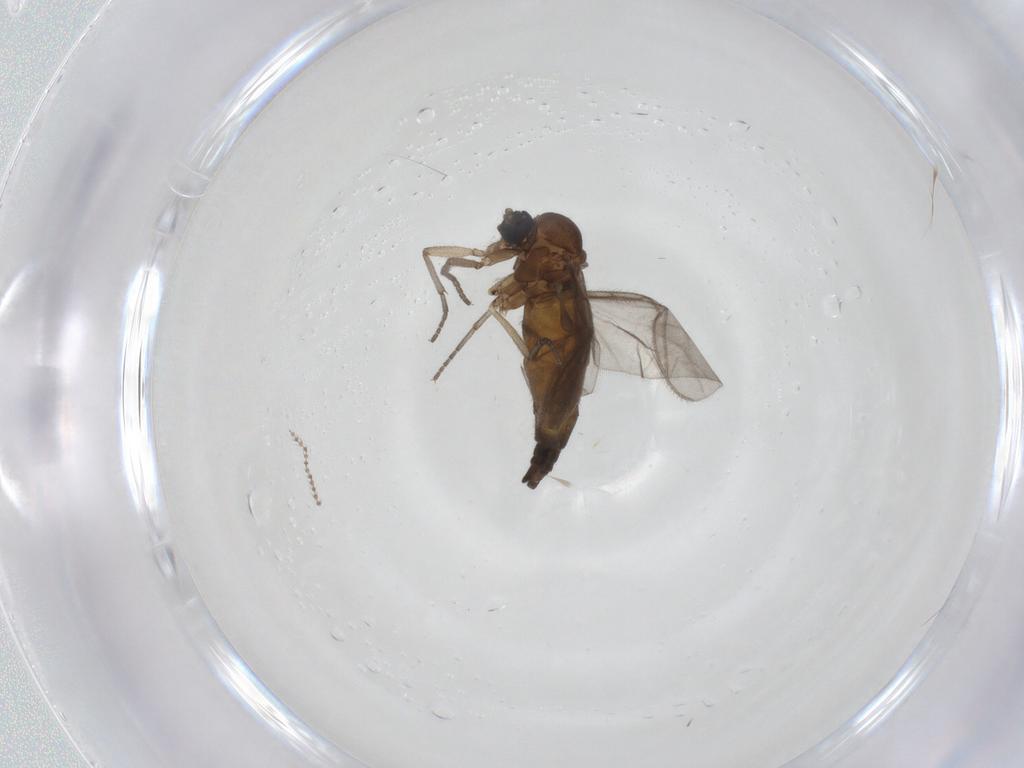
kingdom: Animalia
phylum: Arthropoda
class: Insecta
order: Diptera
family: Sciaridae
